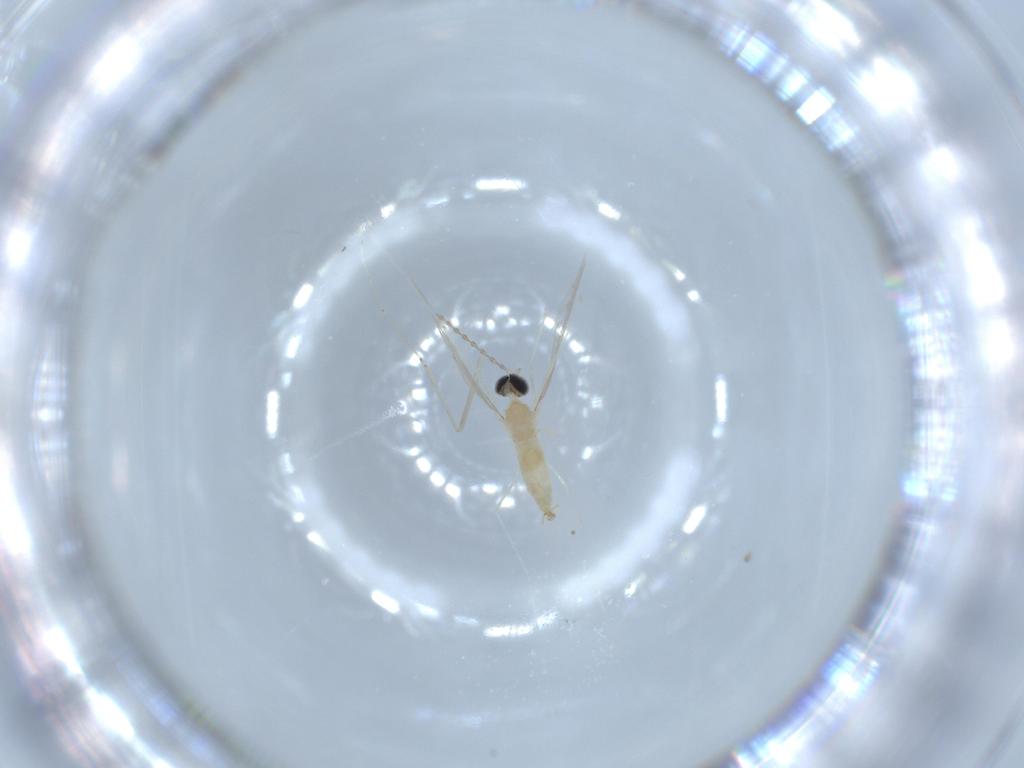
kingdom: Animalia
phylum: Arthropoda
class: Insecta
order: Diptera
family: Cecidomyiidae
